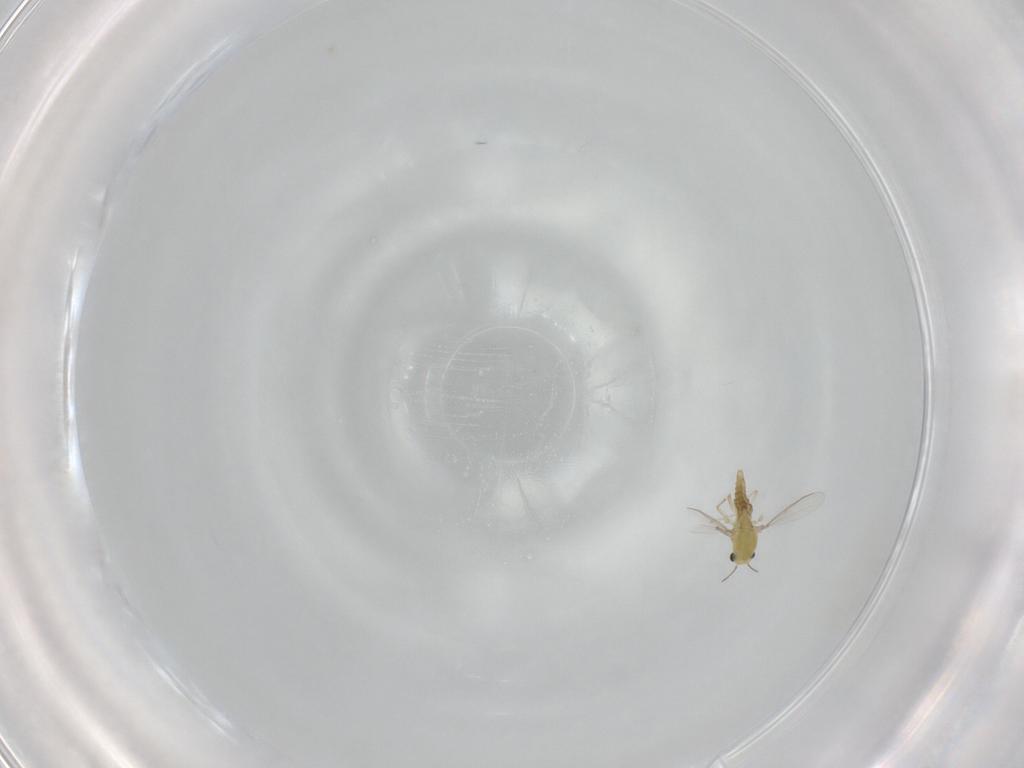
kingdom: Animalia
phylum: Arthropoda
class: Insecta
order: Diptera
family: Chironomidae
